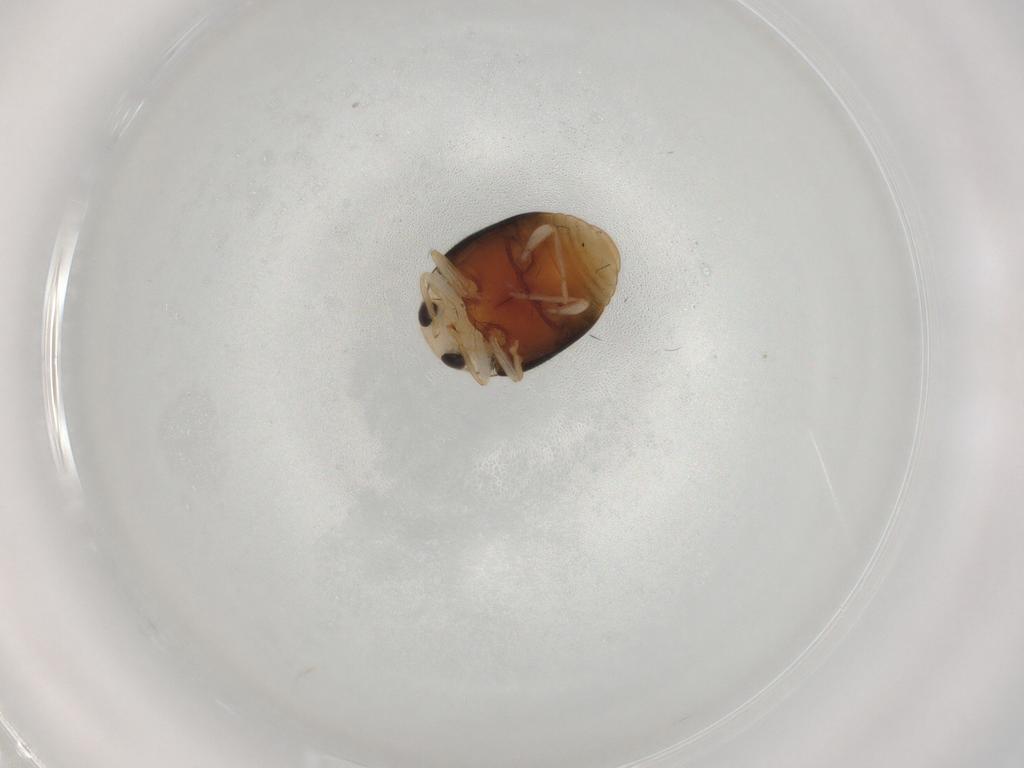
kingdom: Animalia
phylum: Arthropoda
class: Insecta
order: Coleoptera
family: Coccinellidae
